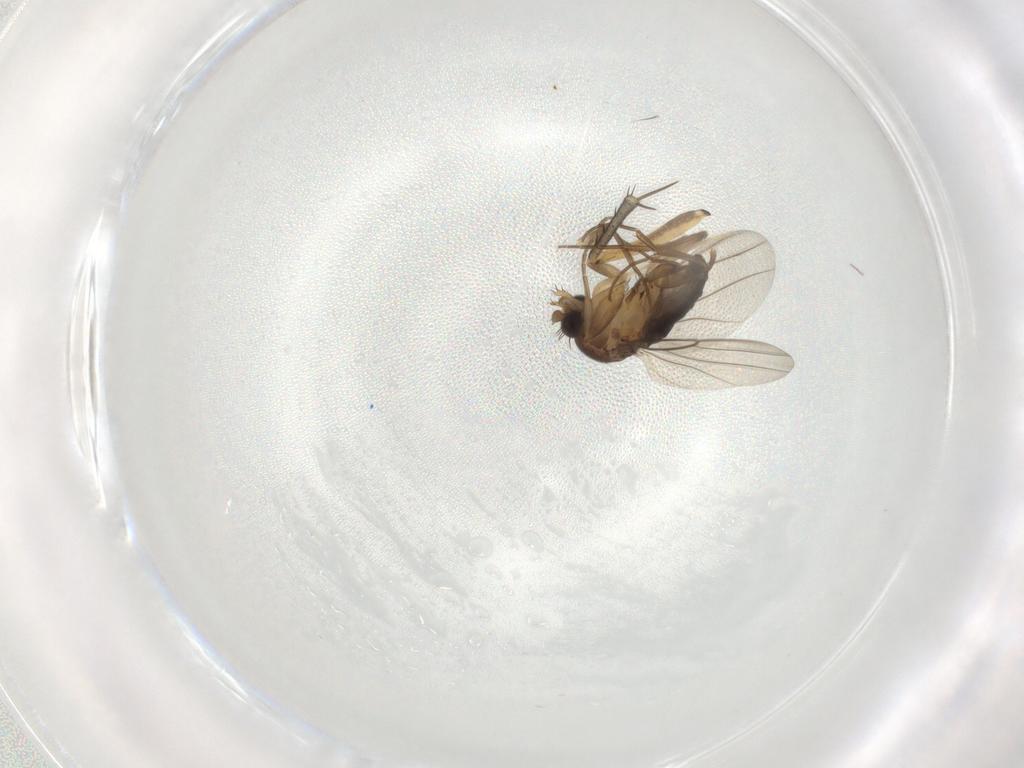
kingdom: Animalia
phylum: Arthropoda
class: Insecta
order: Diptera
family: Phoridae
